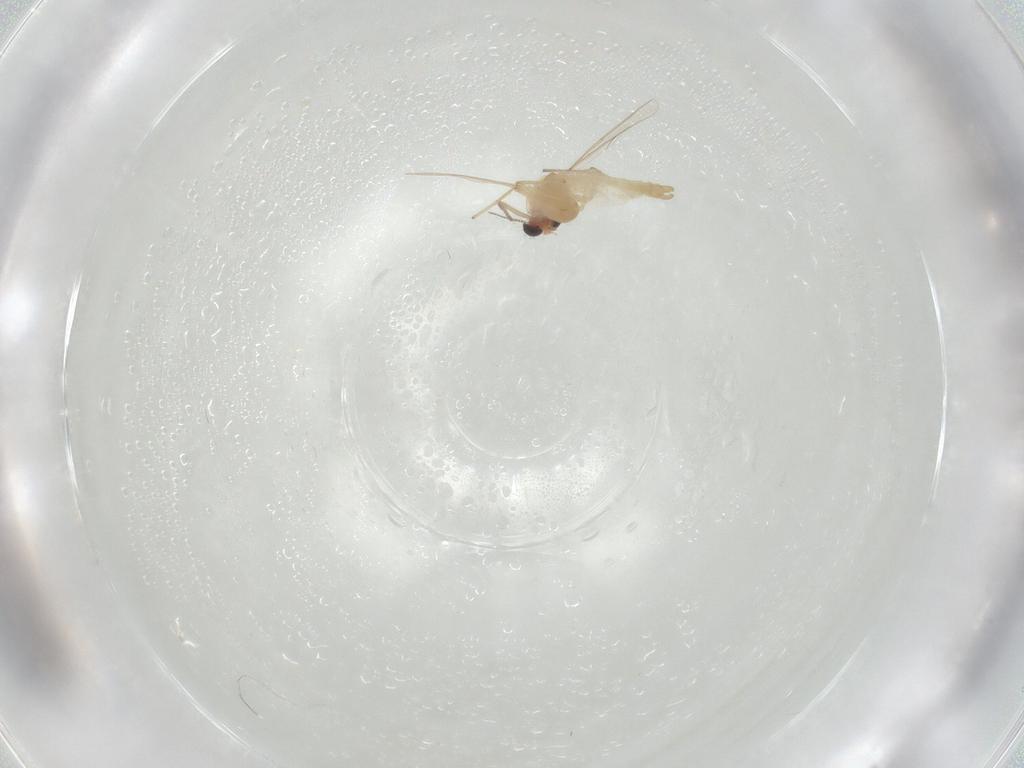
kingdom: Animalia
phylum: Arthropoda
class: Insecta
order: Diptera
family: Chironomidae
